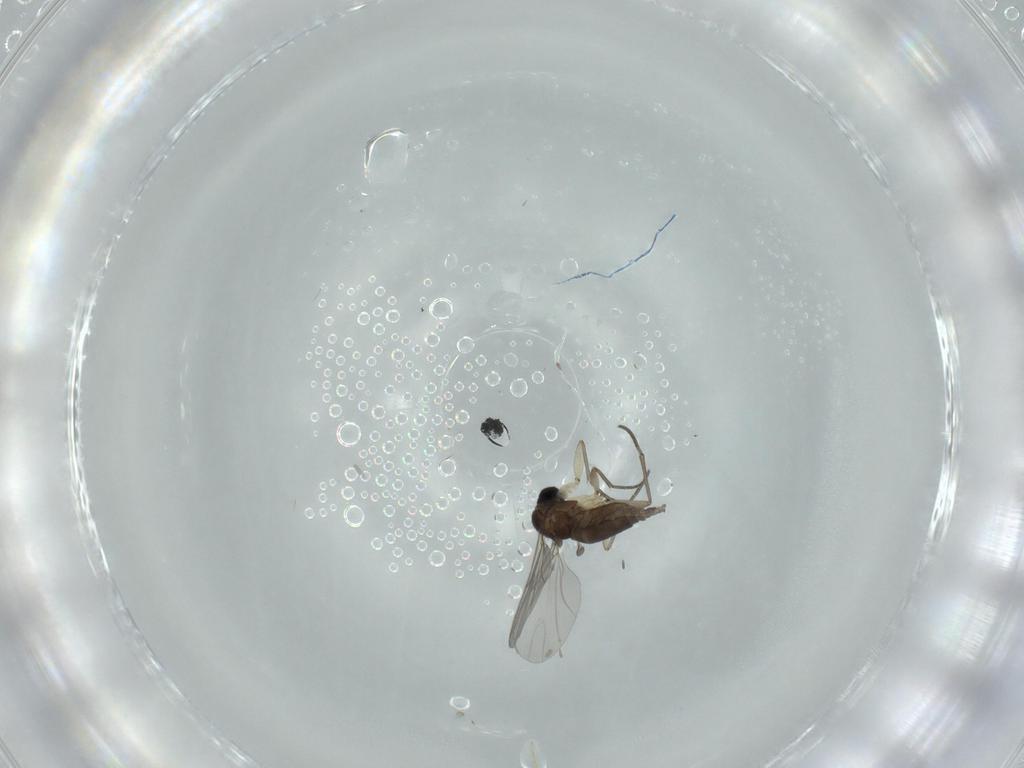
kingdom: Animalia
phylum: Arthropoda
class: Insecta
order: Diptera
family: Sciaridae
